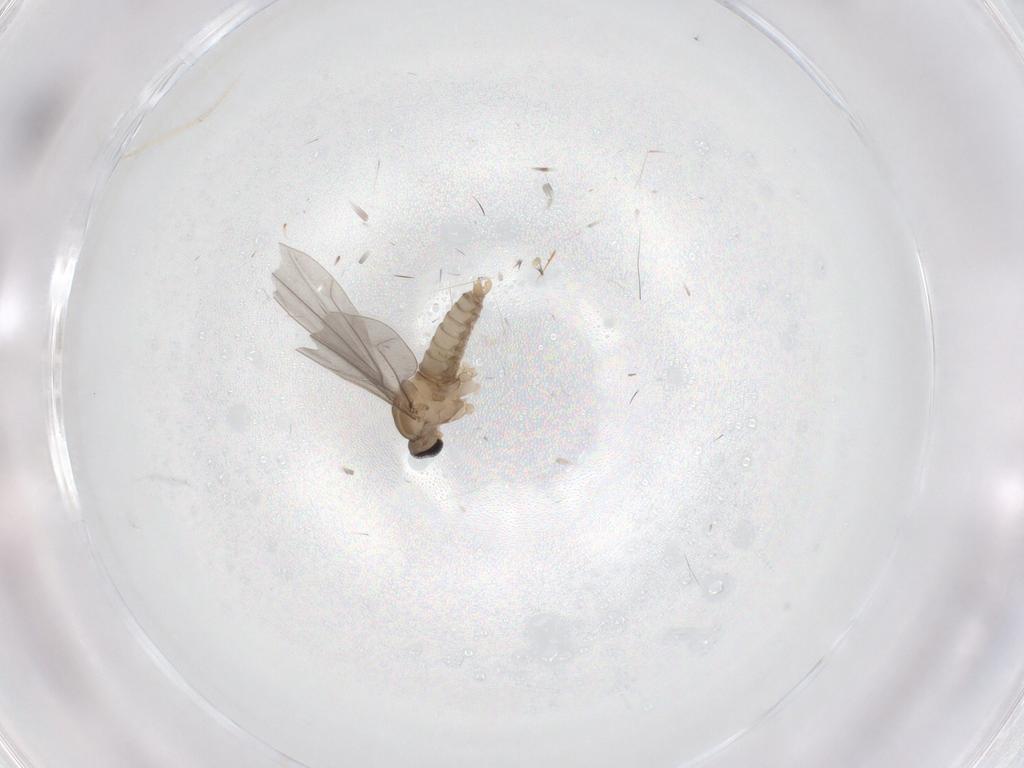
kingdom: Animalia
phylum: Arthropoda
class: Insecta
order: Diptera
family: Cecidomyiidae
